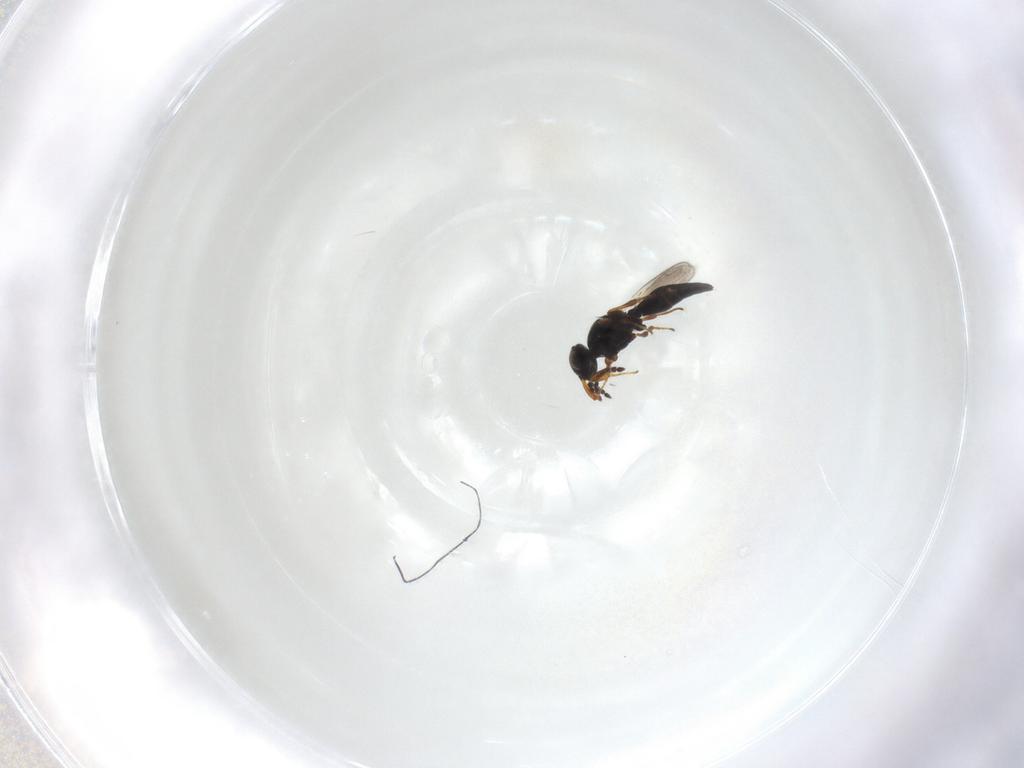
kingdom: Animalia
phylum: Arthropoda
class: Insecta
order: Hymenoptera
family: Platygastridae
